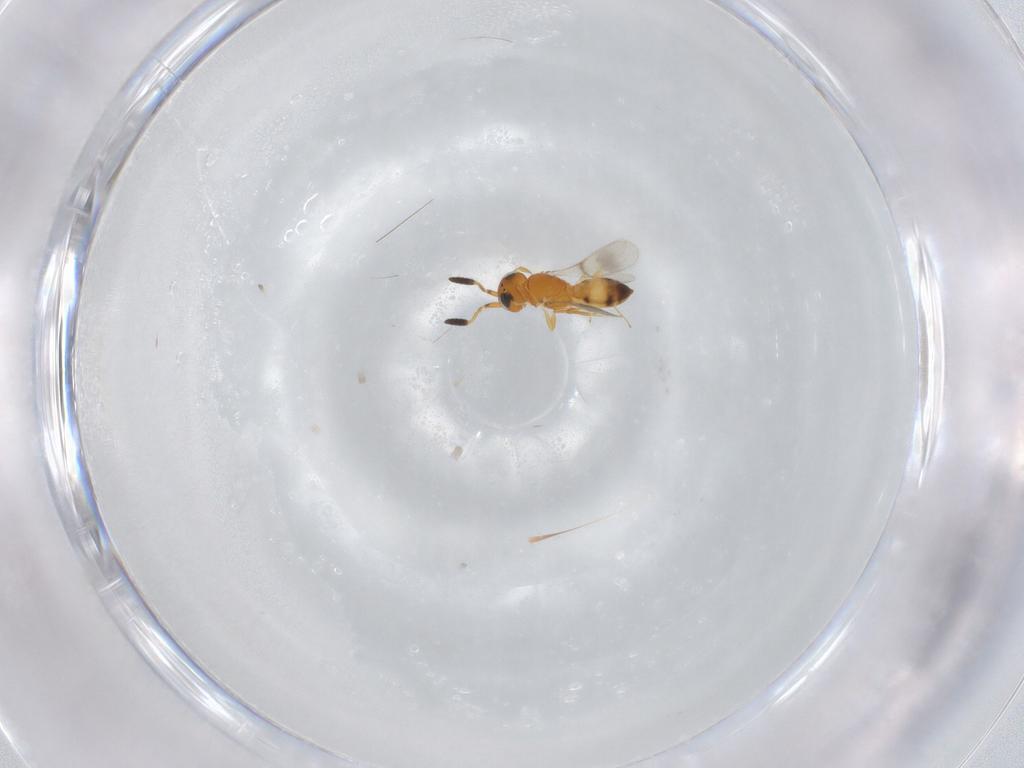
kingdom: Animalia
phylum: Arthropoda
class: Insecta
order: Hymenoptera
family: Scelionidae
